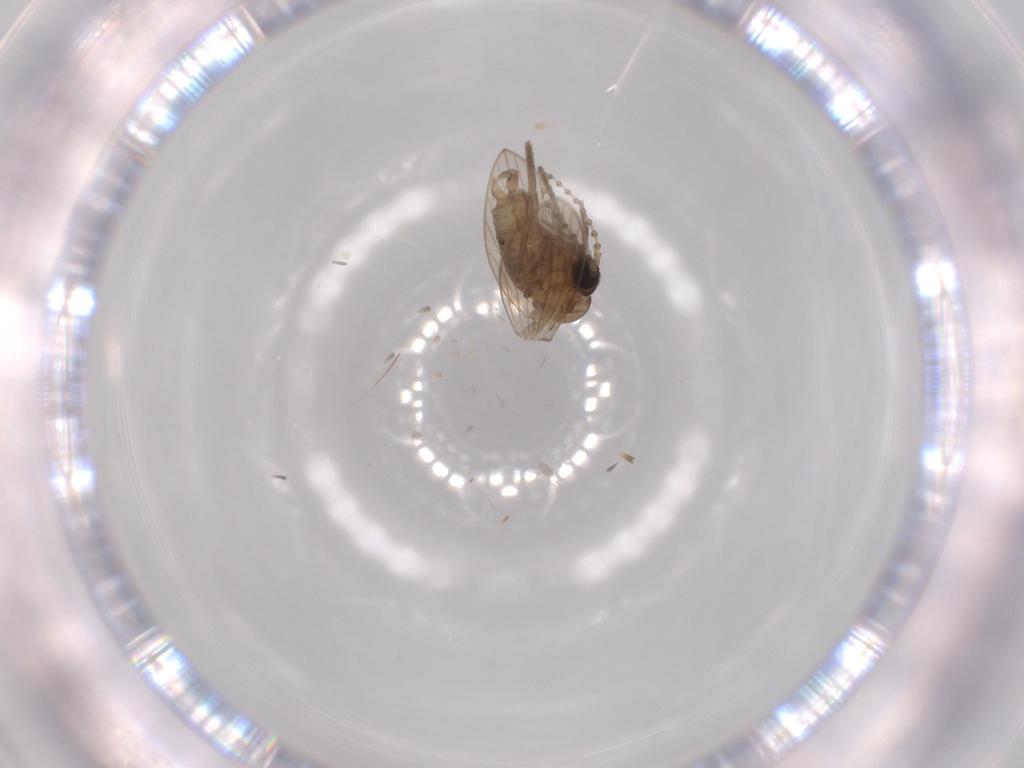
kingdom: Animalia
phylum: Arthropoda
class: Insecta
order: Diptera
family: Sciaridae
